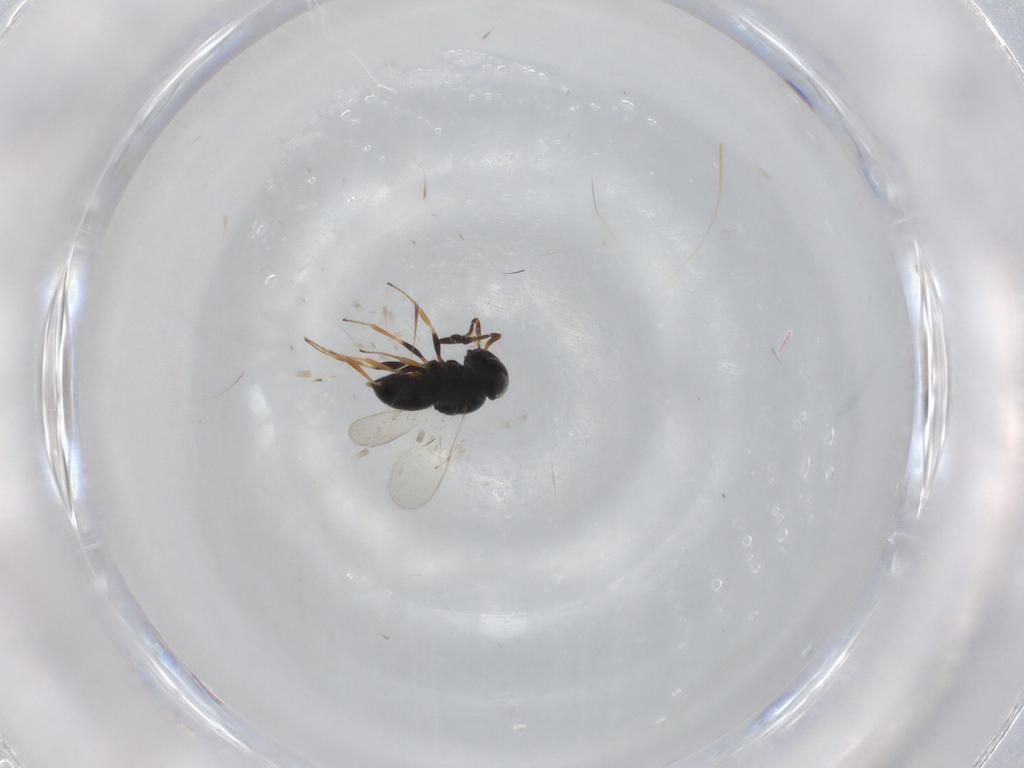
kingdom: Animalia
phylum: Arthropoda
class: Insecta
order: Coleoptera
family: Curculionidae
